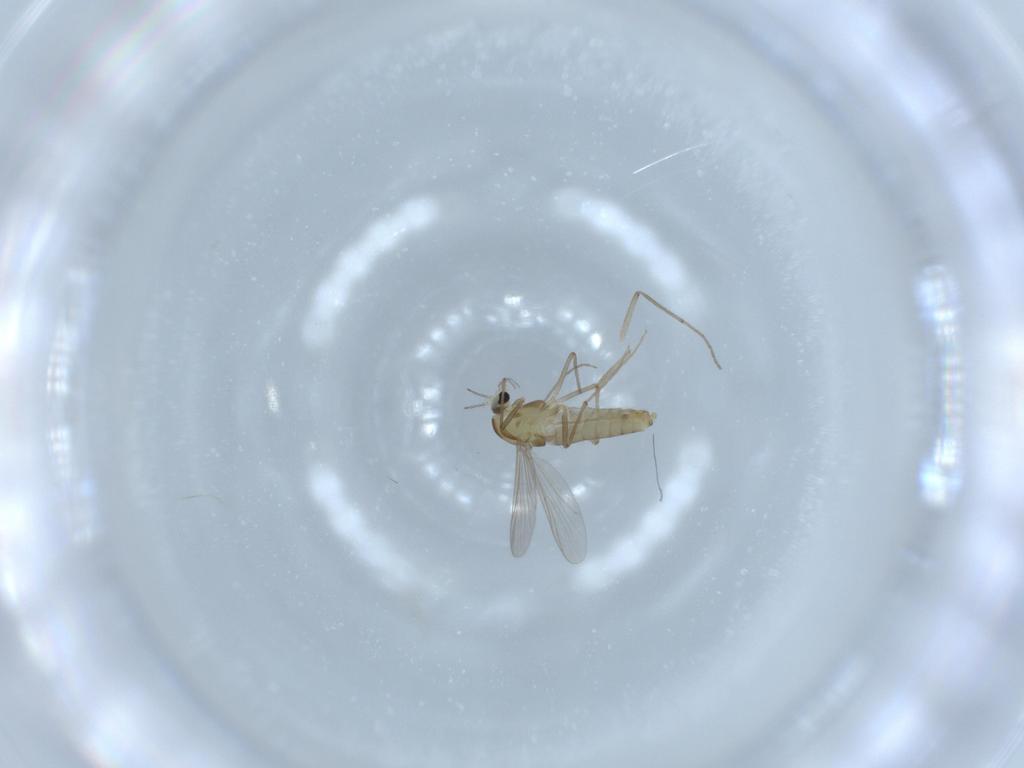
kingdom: Animalia
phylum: Arthropoda
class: Insecta
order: Diptera
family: Chironomidae
